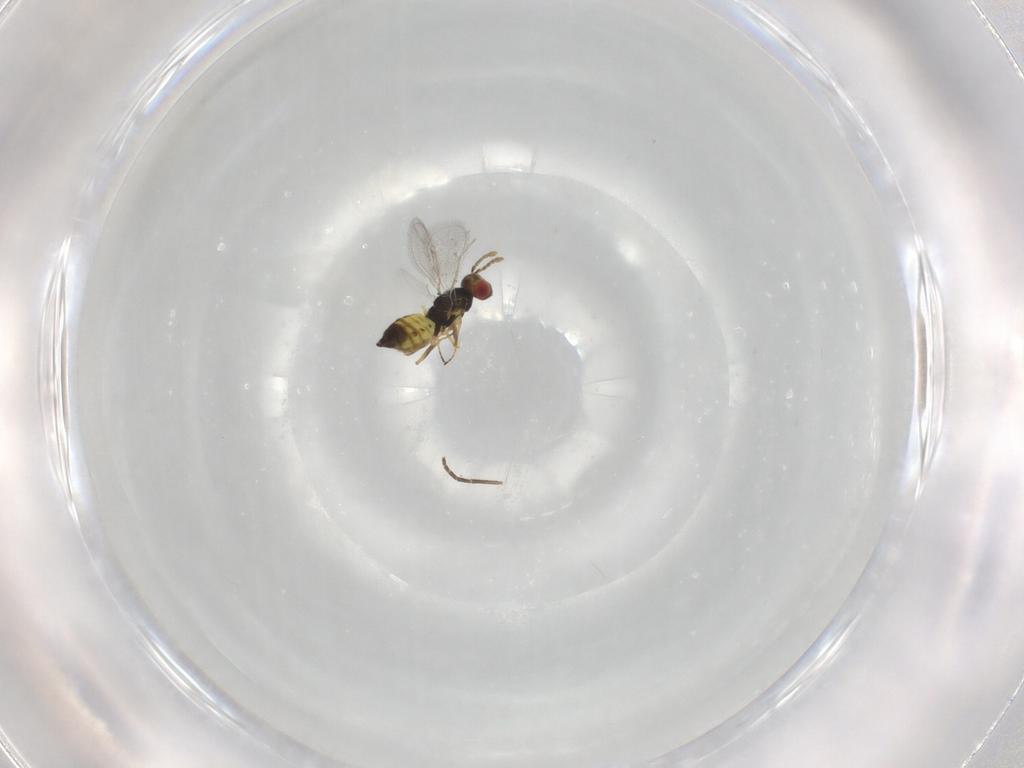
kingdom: Animalia
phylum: Arthropoda
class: Insecta
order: Hymenoptera
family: Eulophidae
